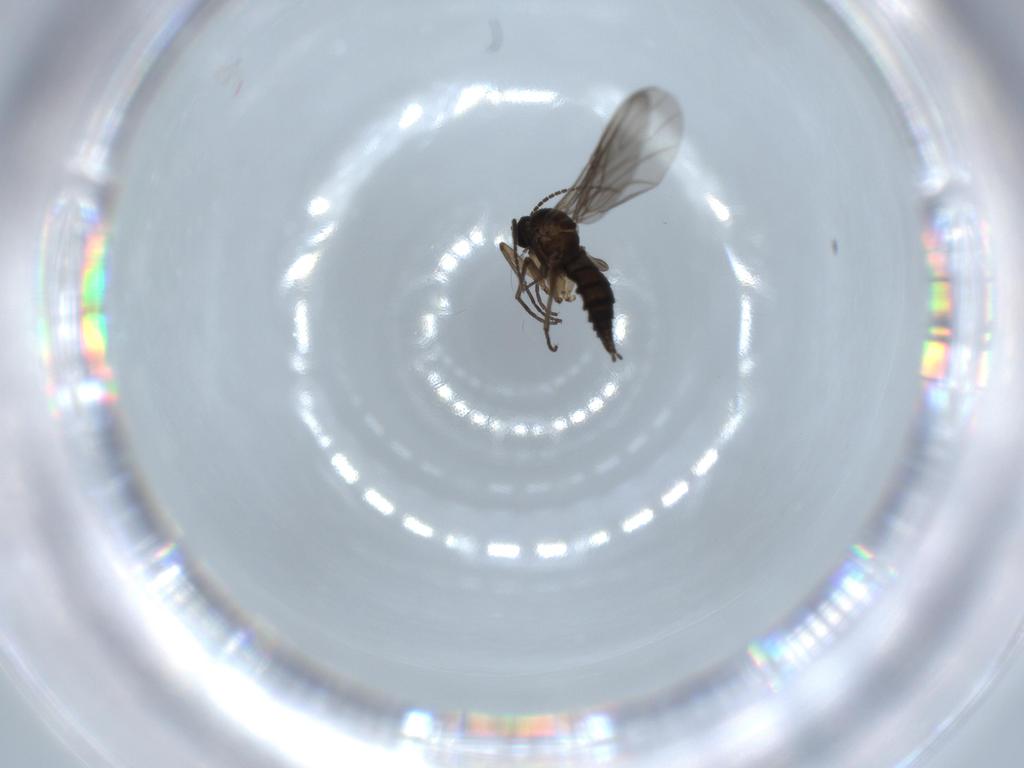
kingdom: Animalia
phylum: Arthropoda
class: Insecta
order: Diptera
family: Sciaridae
